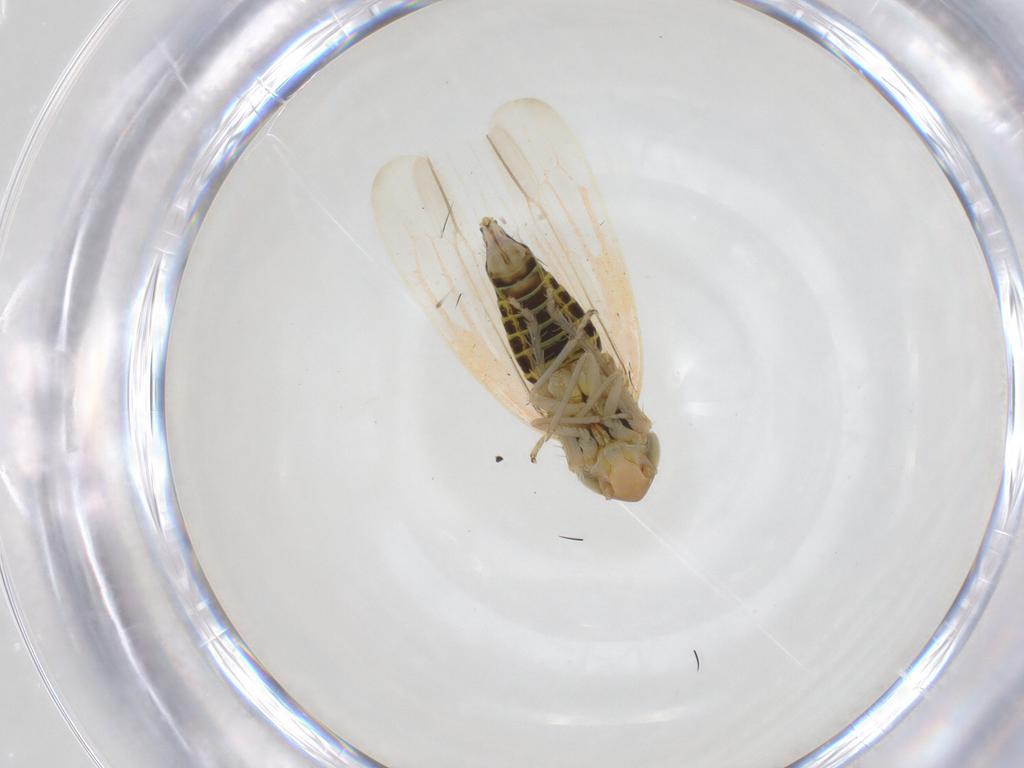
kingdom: Animalia
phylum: Arthropoda
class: Insecta
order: Hemiptera
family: Cicadellidae
